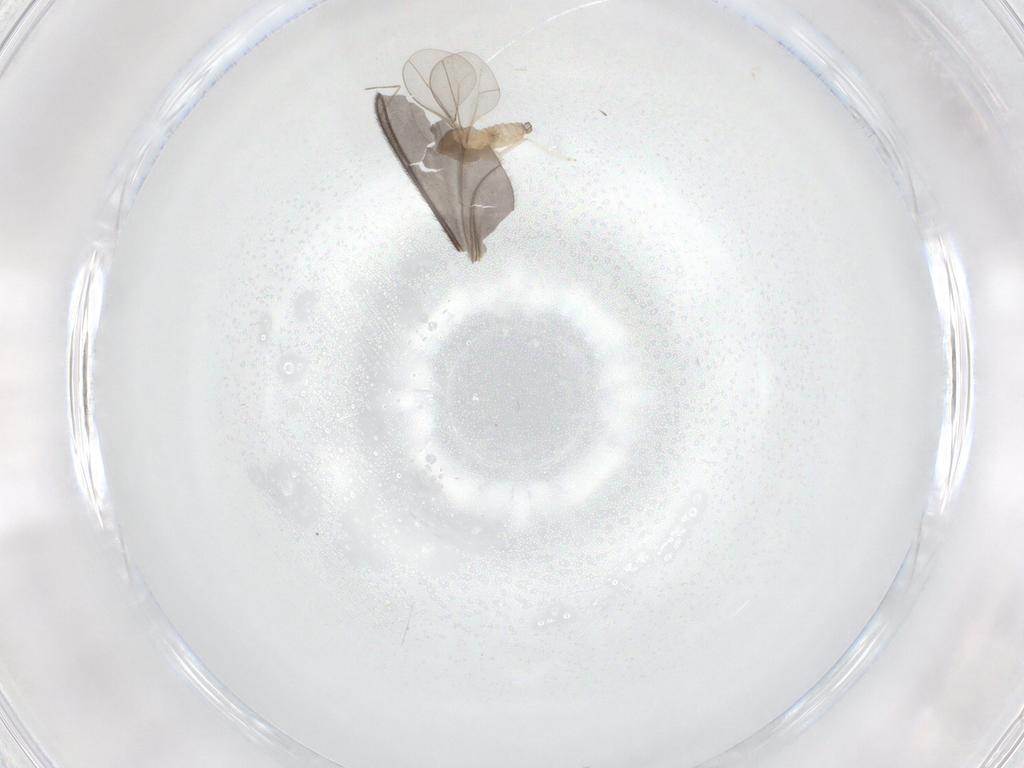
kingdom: Animalia
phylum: Arthropoda
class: Insecta
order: Diptera
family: Cecidomyiidae
